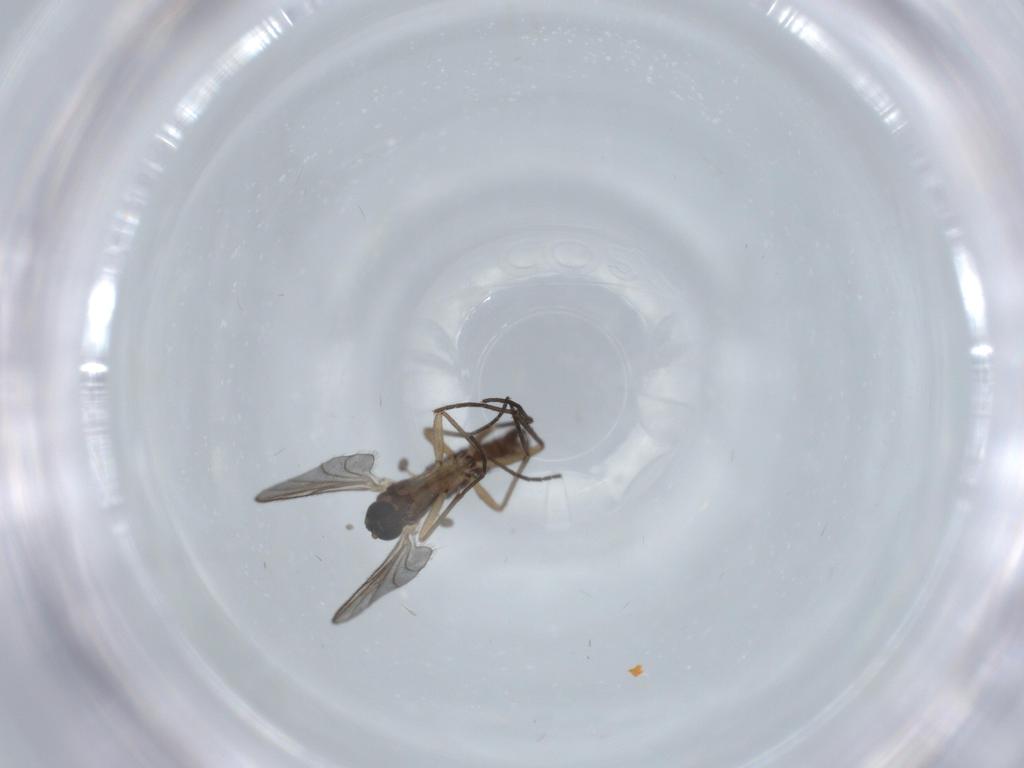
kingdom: Animalia
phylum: Arthropoda
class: Insecta
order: Diptera
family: Sciaridae
